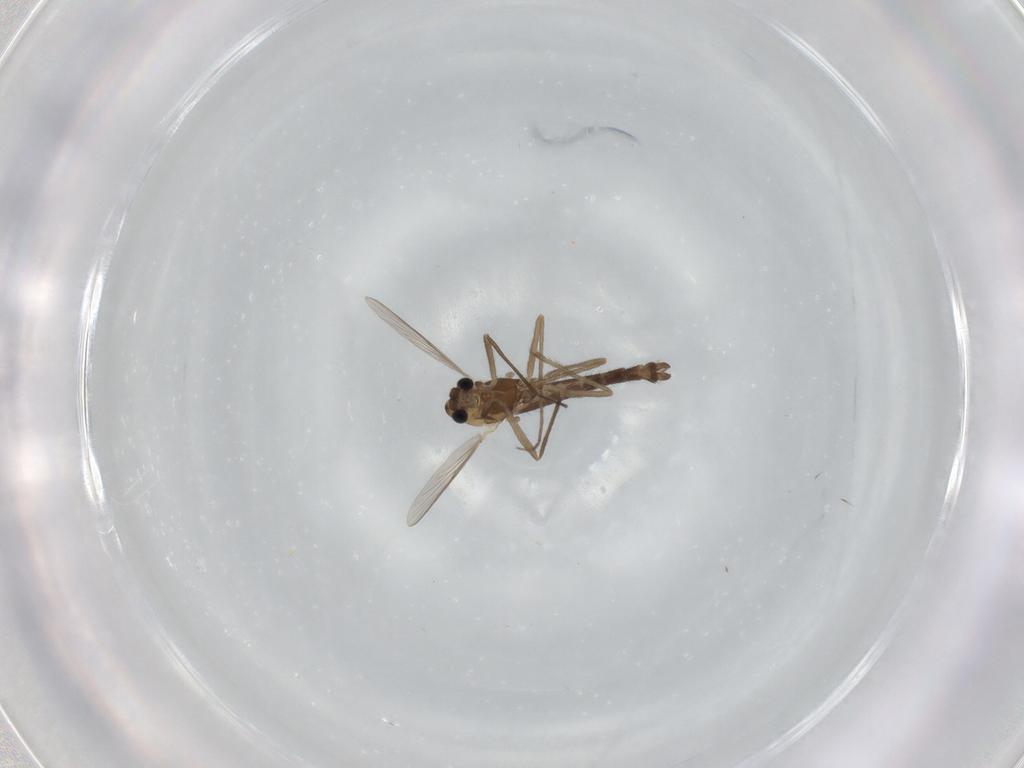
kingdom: Animalia
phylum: Arthropoda
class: Insecta
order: Diptera
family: Chironomidae
